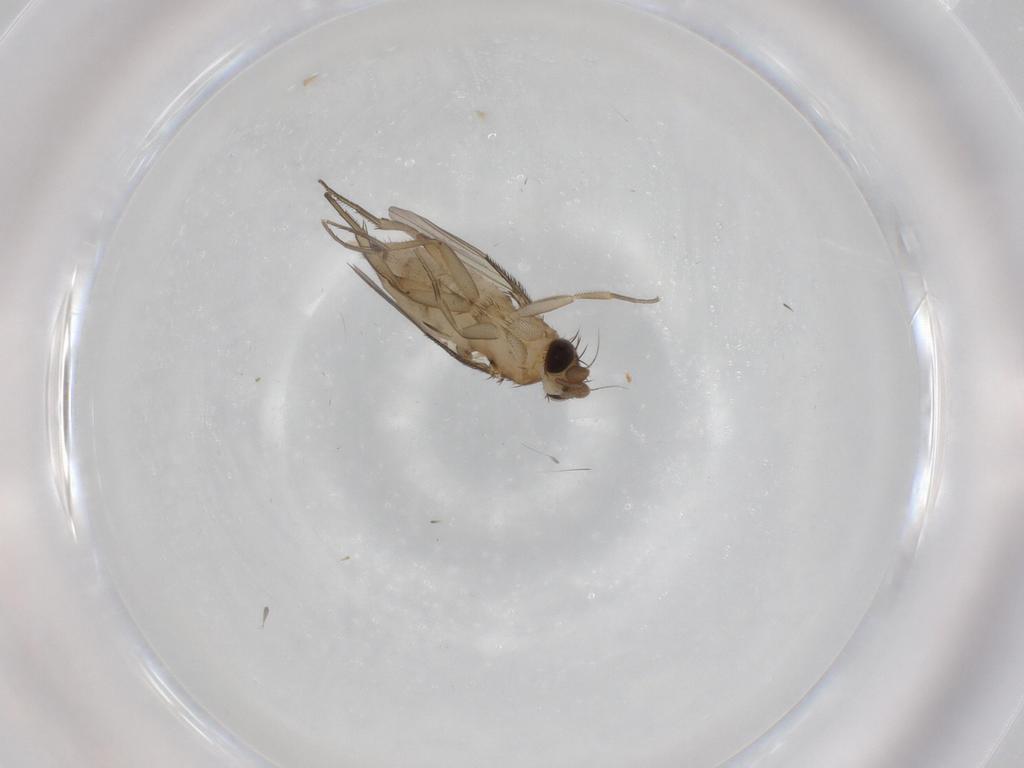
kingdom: Animalia
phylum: Arthropoda
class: Insecta
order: Diptera
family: Phoridae
